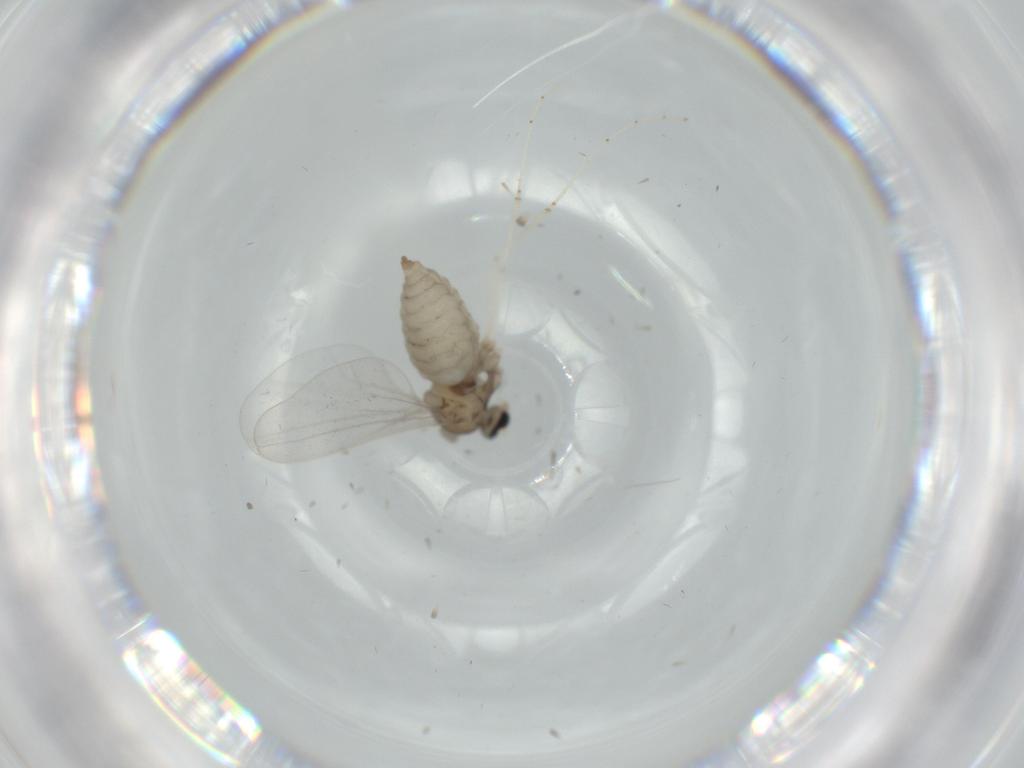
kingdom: Animalia
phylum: Arthropoda
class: Insecta
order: Diptera
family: Cecidomyiidae
